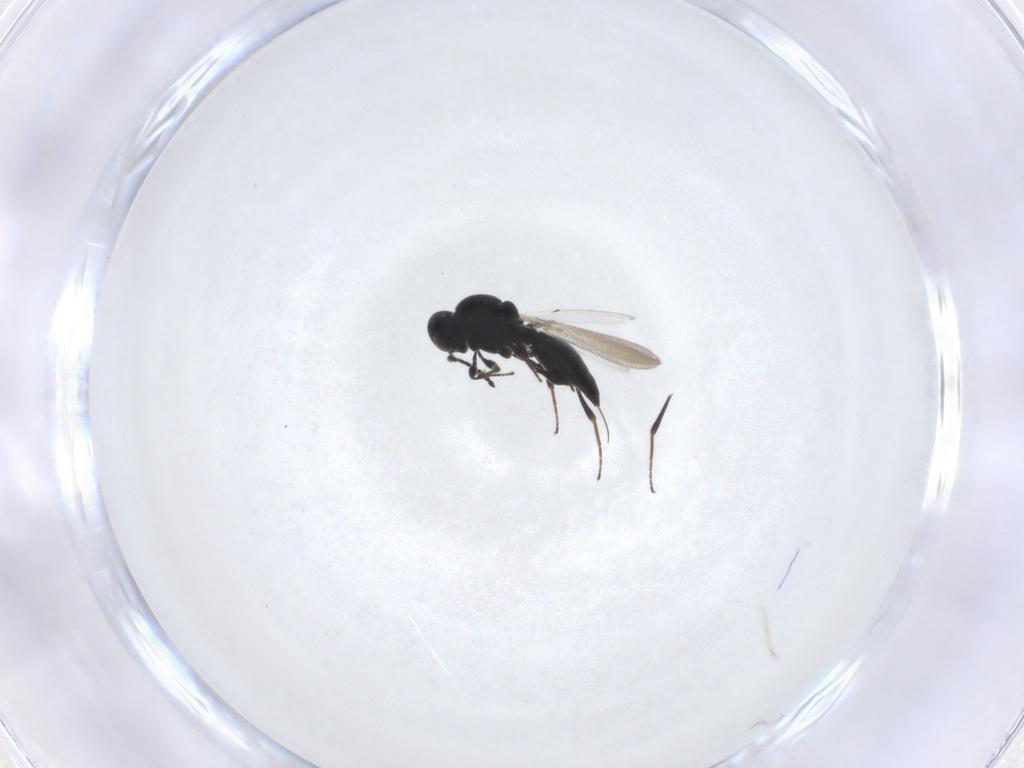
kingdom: Animalia
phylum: Arthropoda
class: Insecta
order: Hymenoptera
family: Platygastridae
